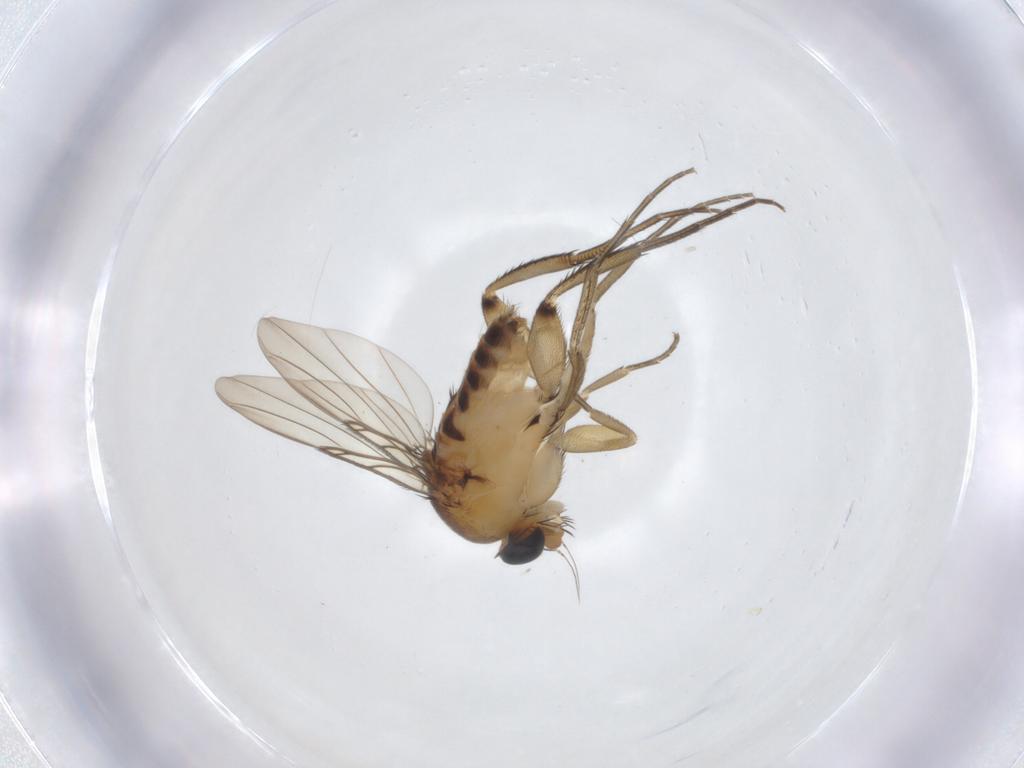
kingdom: Animalia
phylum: Arthropoda
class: Insecta
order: Diptera
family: Phoridae
